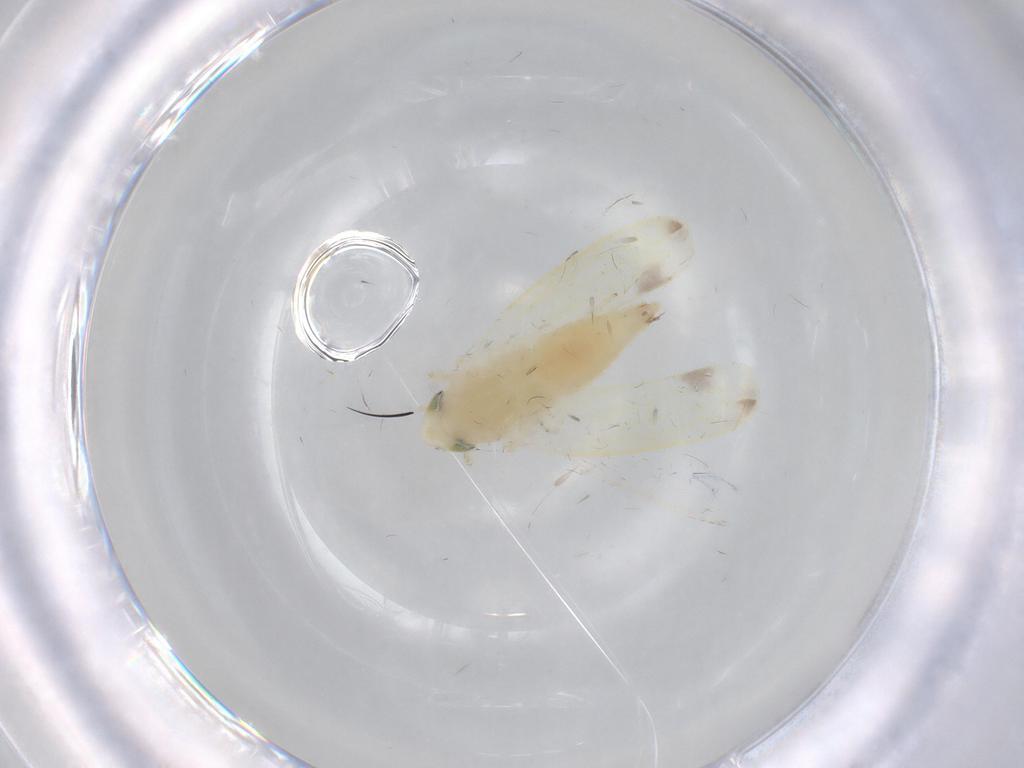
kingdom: Animalia
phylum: Arthropoda
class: Insecta
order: Hemiptera
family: Cicadellidae
